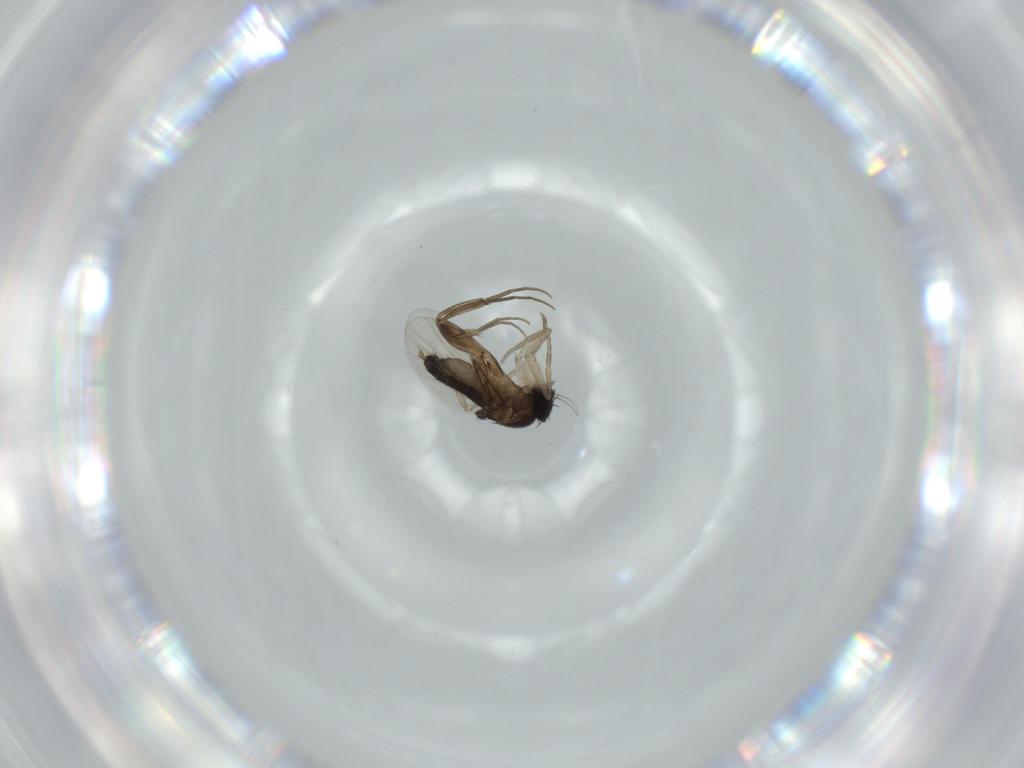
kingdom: Animalia
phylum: Arthropoda
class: Insecta
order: Diptera
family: Phoridae
